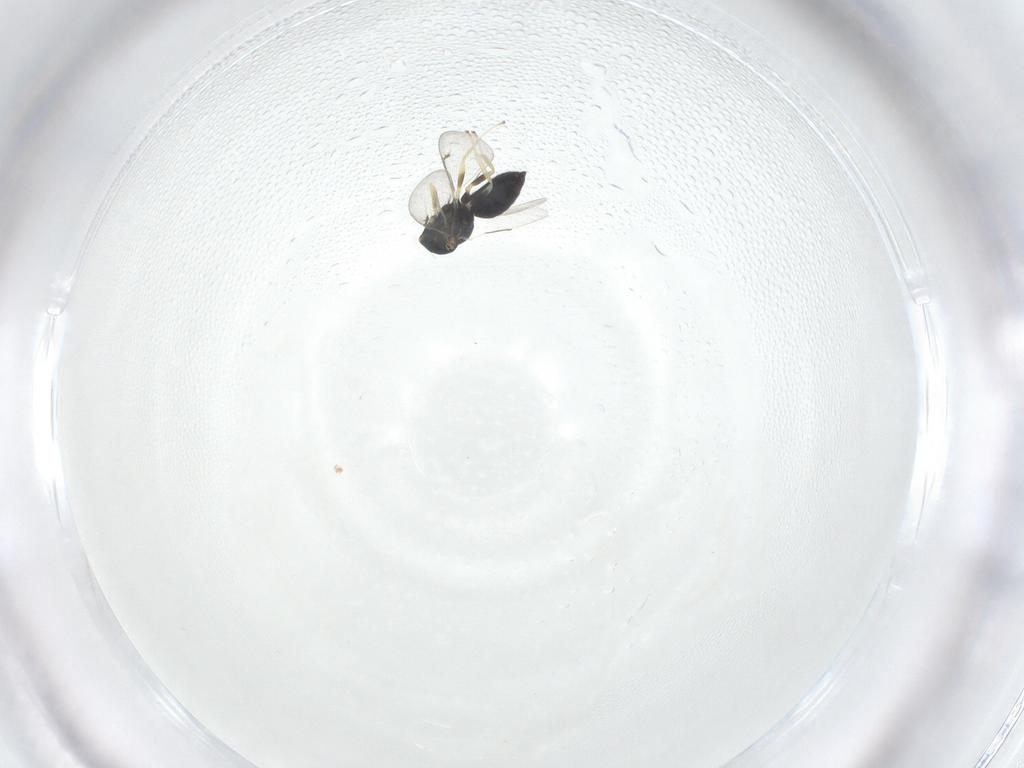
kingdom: Animalia
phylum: Arthropoda
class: Insecta
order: Hymenoptera
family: Eulophidae
